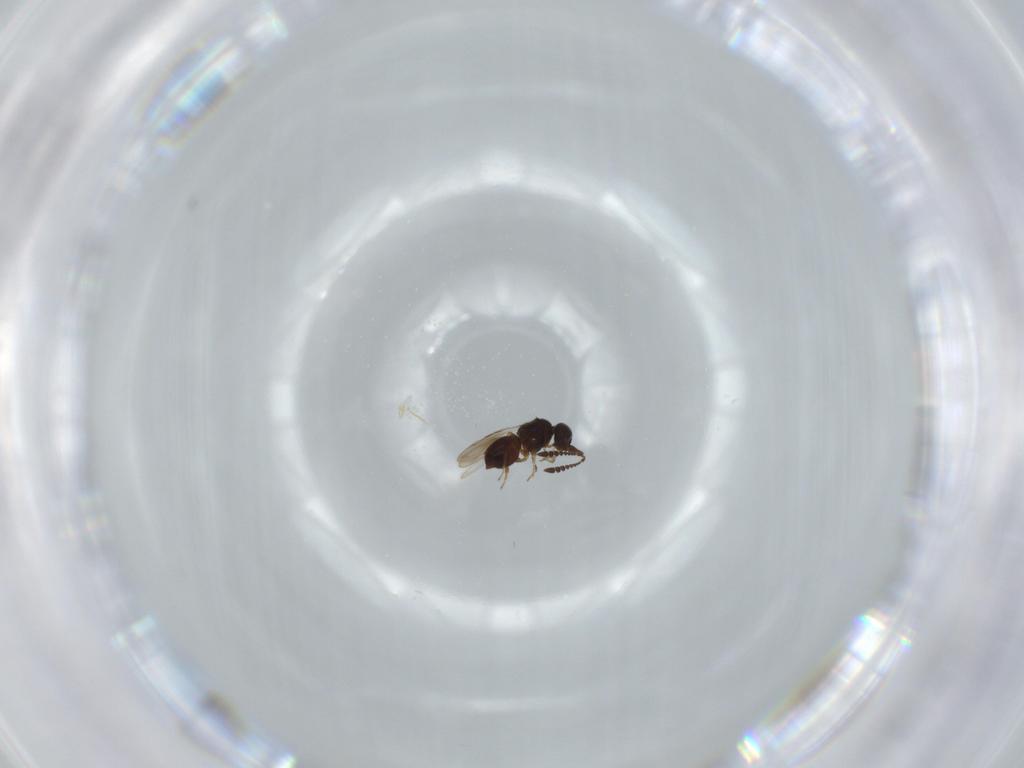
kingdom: Animalia
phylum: Arthropoda
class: Insecta
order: Hymenoptera
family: Ceraphronidae
